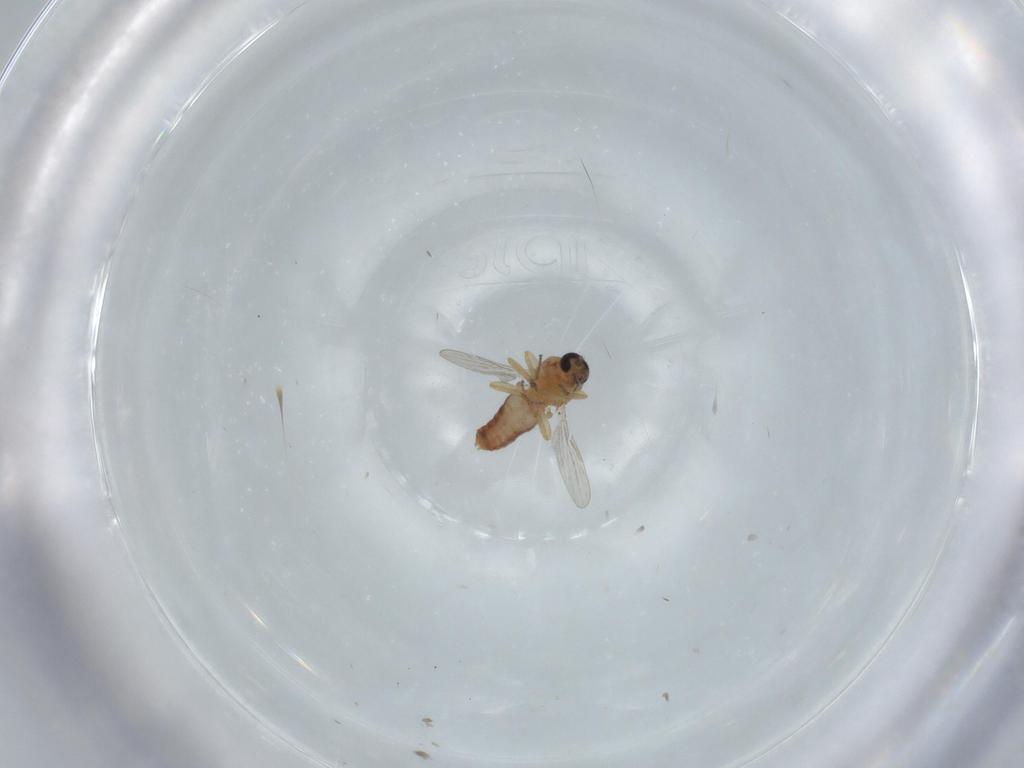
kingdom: Animalia
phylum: Arthropoda
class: Insecta
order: Diptera
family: Ceratopogonidae
